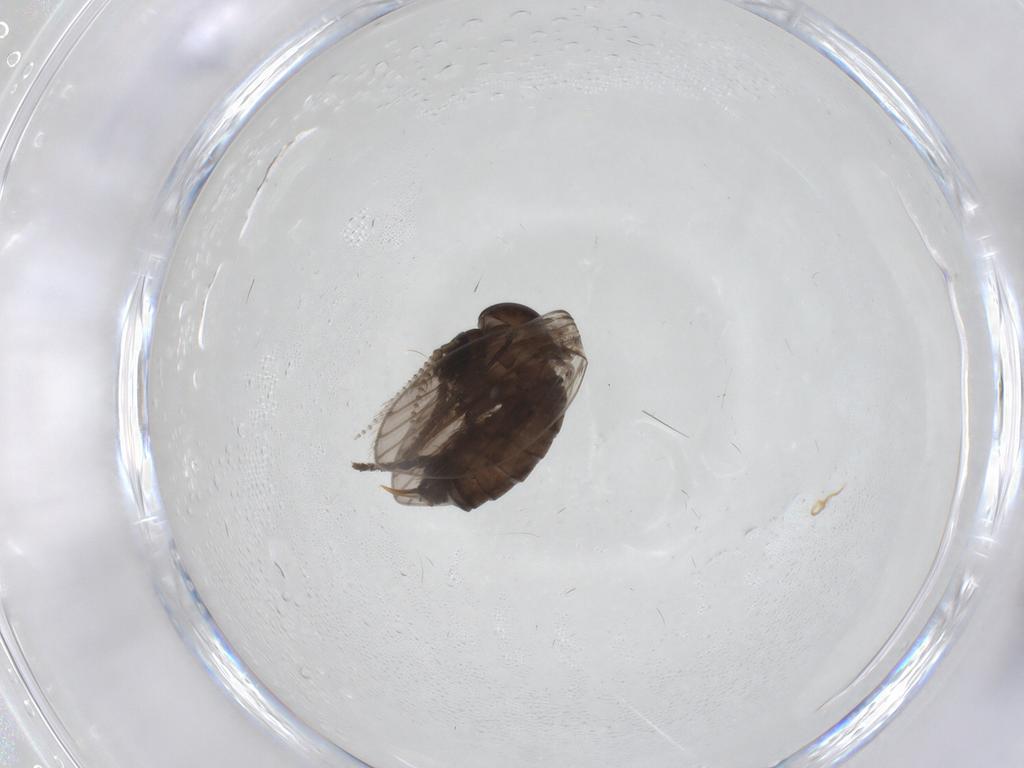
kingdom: Animalia
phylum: Arthropoda
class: Insecta
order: Diptera
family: Psychodidae
